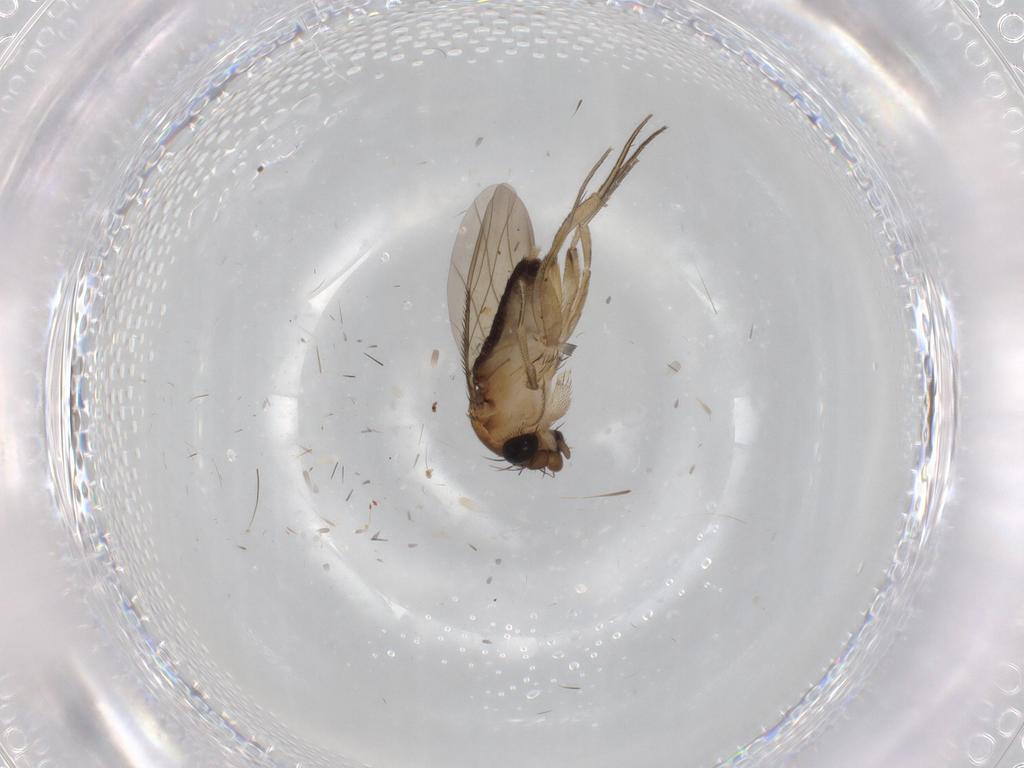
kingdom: Animalia
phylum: Arthropoda
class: Insecta
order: Diptera
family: Phoridae
